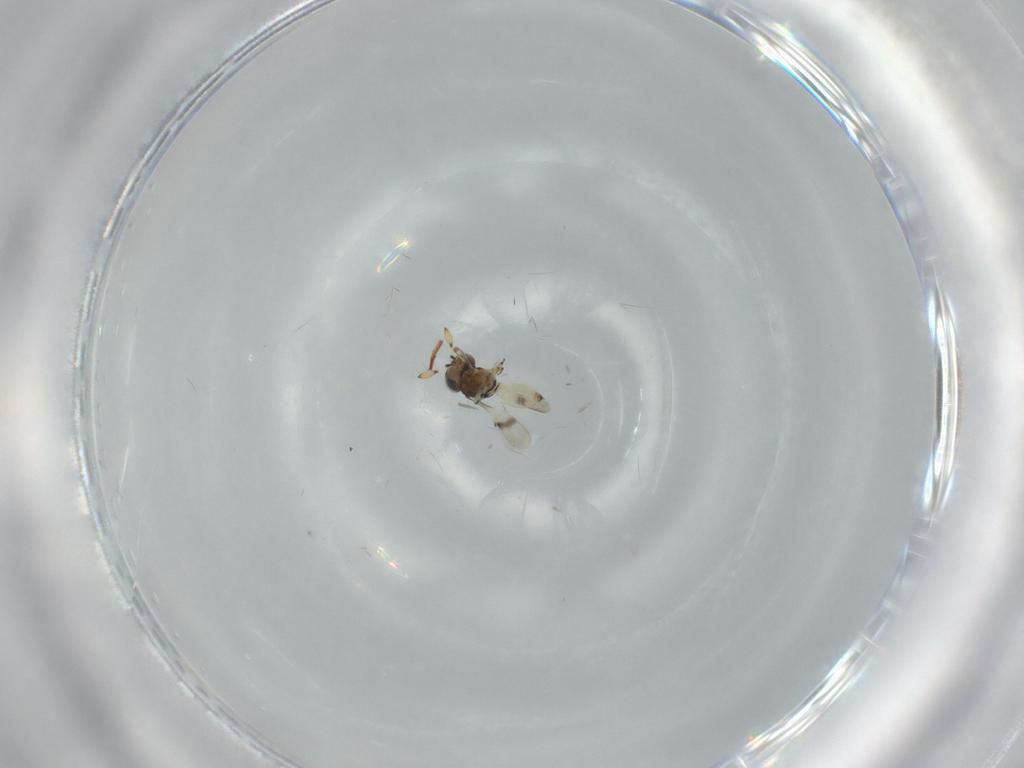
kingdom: Animalia
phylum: Arthropoda
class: Insecta
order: Hymenoptera
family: Scelionidae
